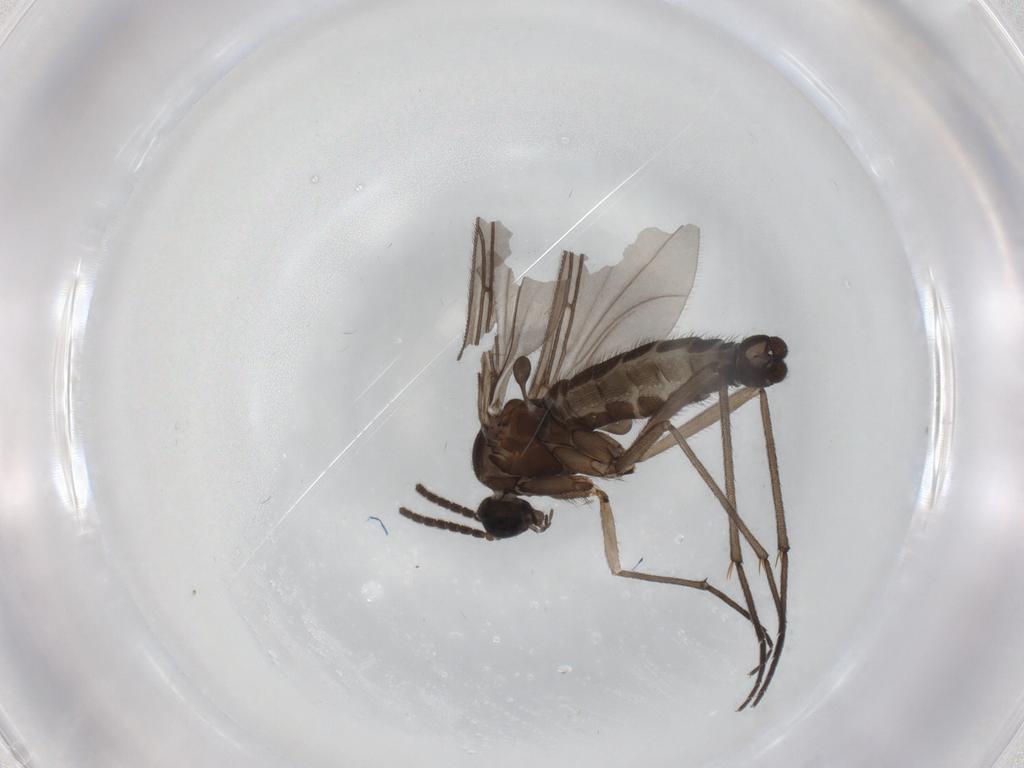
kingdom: Animalia
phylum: Arthropoda
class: Insecta
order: Diptera
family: Sciaridae
